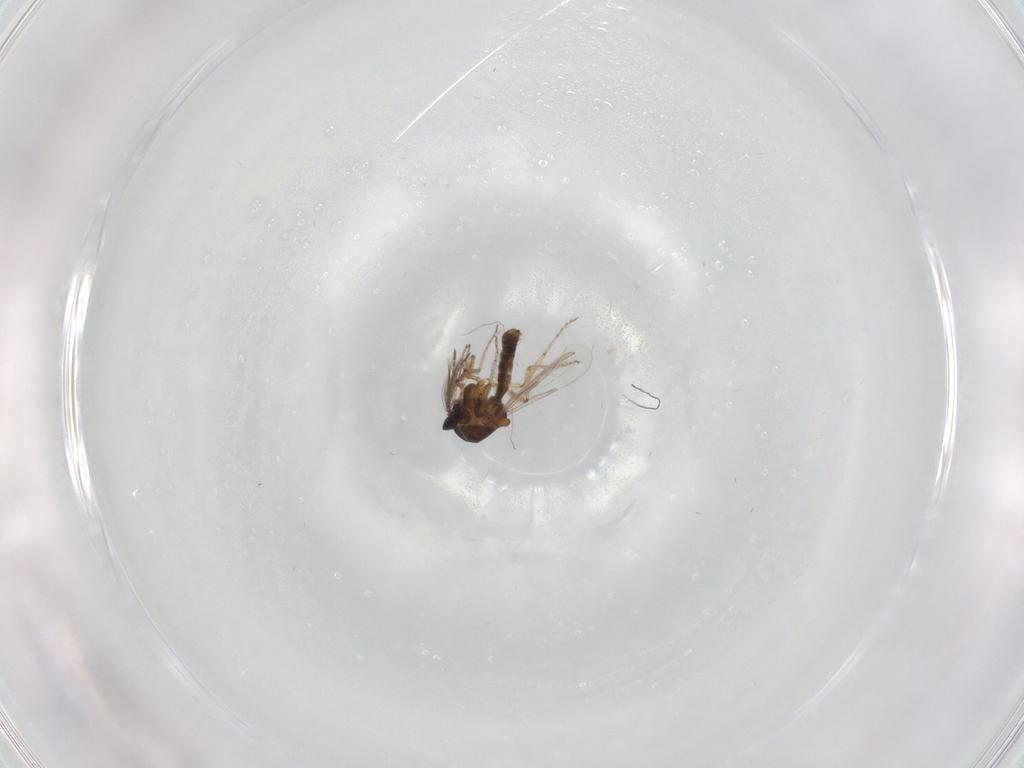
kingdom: Animalia
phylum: Arthropoda
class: Insecta
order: Diptera
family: Ceratopogonidae
